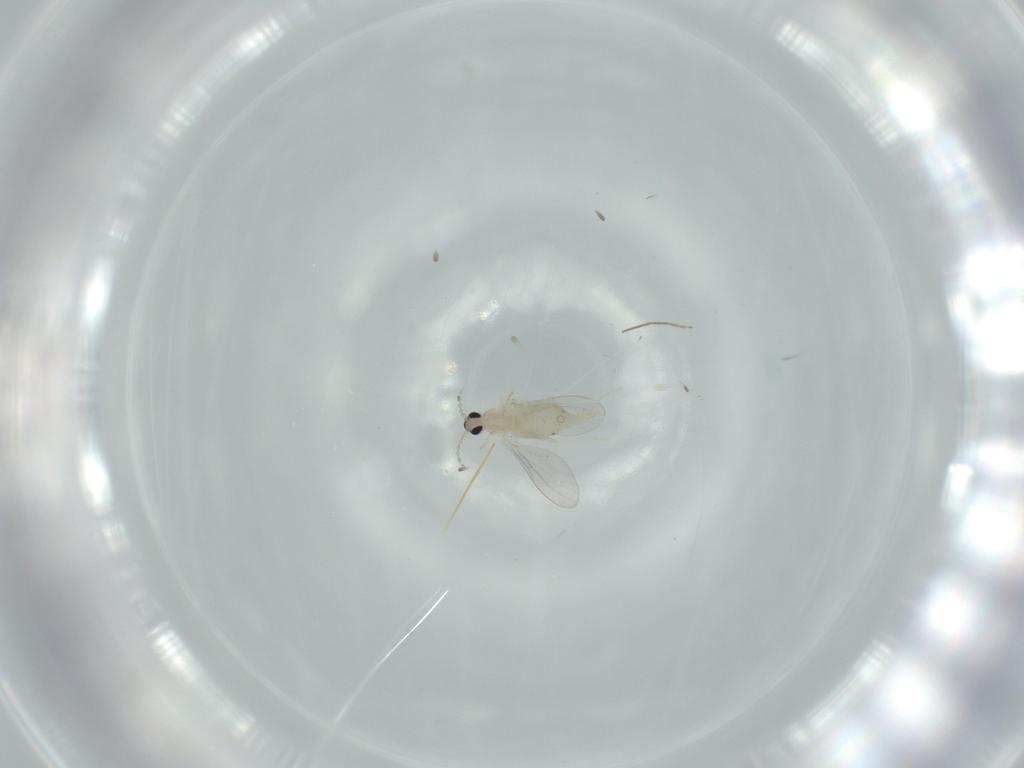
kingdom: Animalia
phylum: Arthropoda
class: Insecta
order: Diptera
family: Cecidomyiidae
